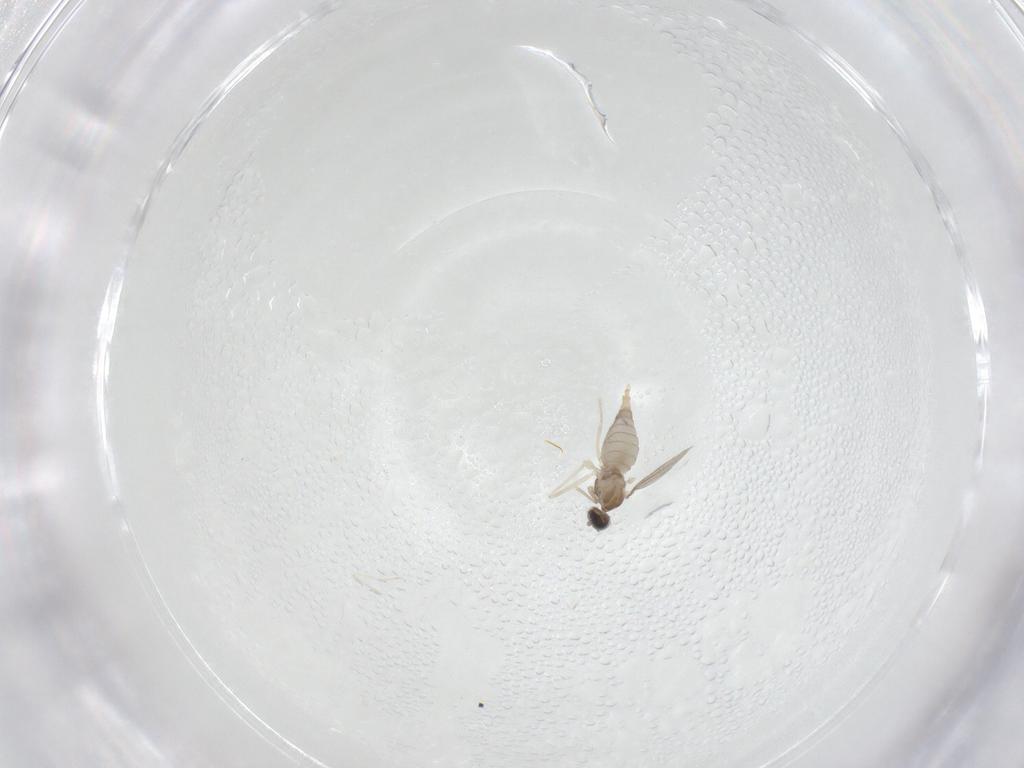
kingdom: Animalia
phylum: Arthropoda
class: Insecta
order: Diptera
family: Cecidomyiidae
